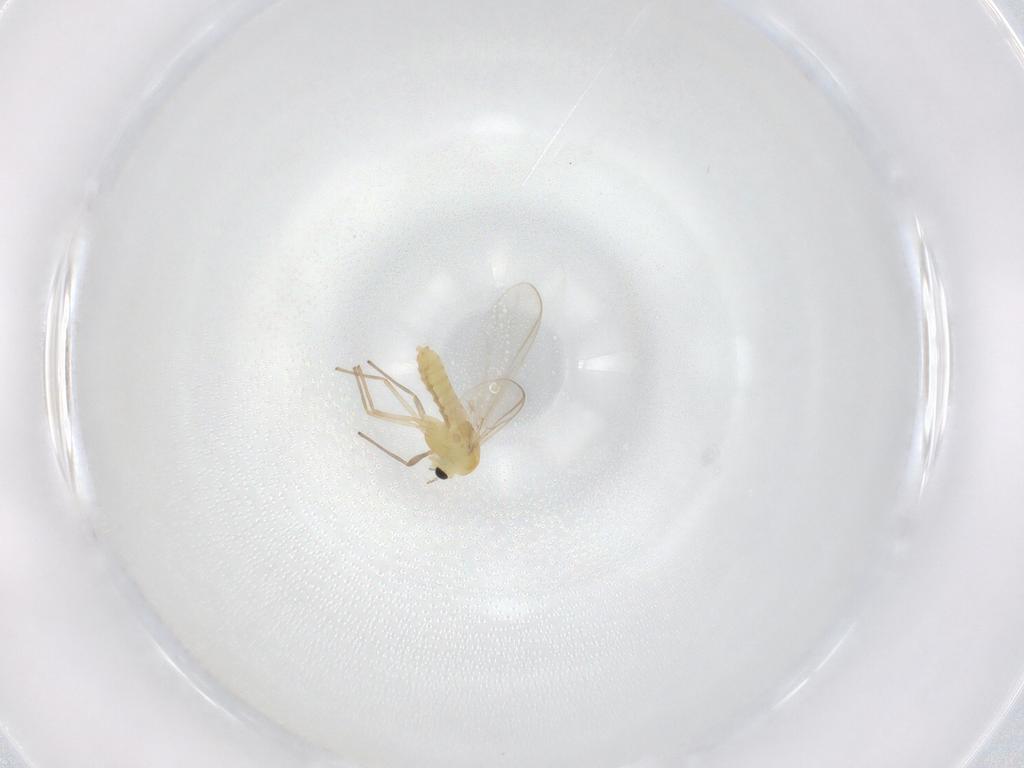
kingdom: Animalia
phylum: Arthropoda
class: Insecta
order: Diptera
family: Chironomidae
